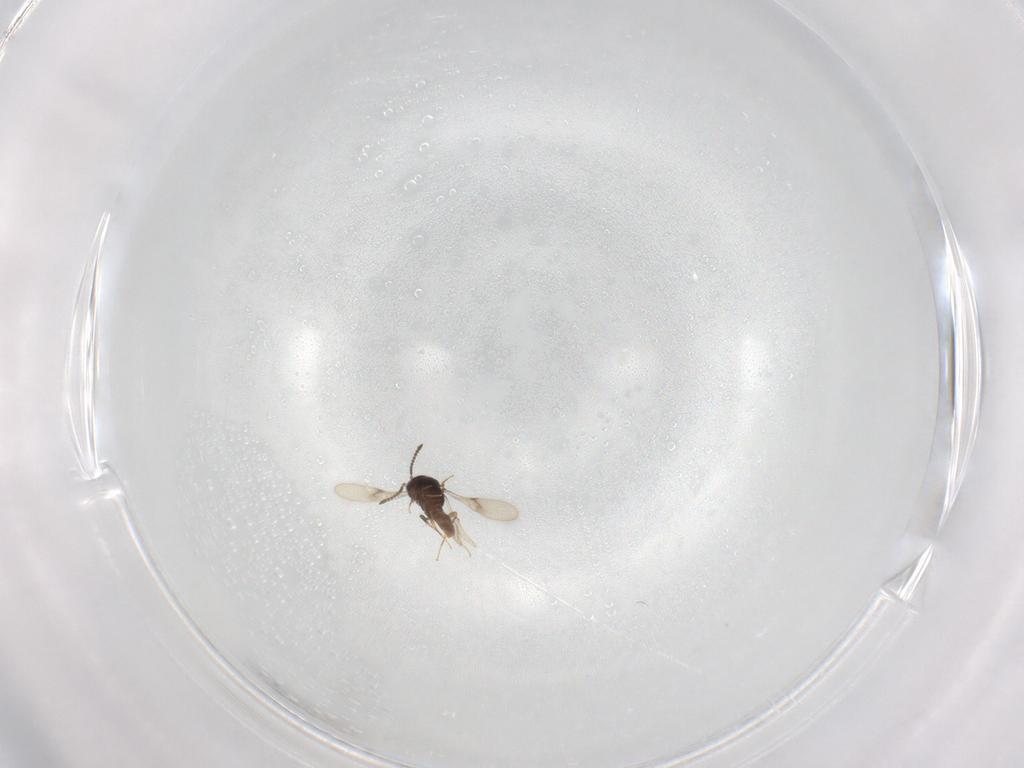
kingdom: Animalia
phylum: Arthropoda
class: Insecta
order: Hymenoptera
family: Scelionidae
